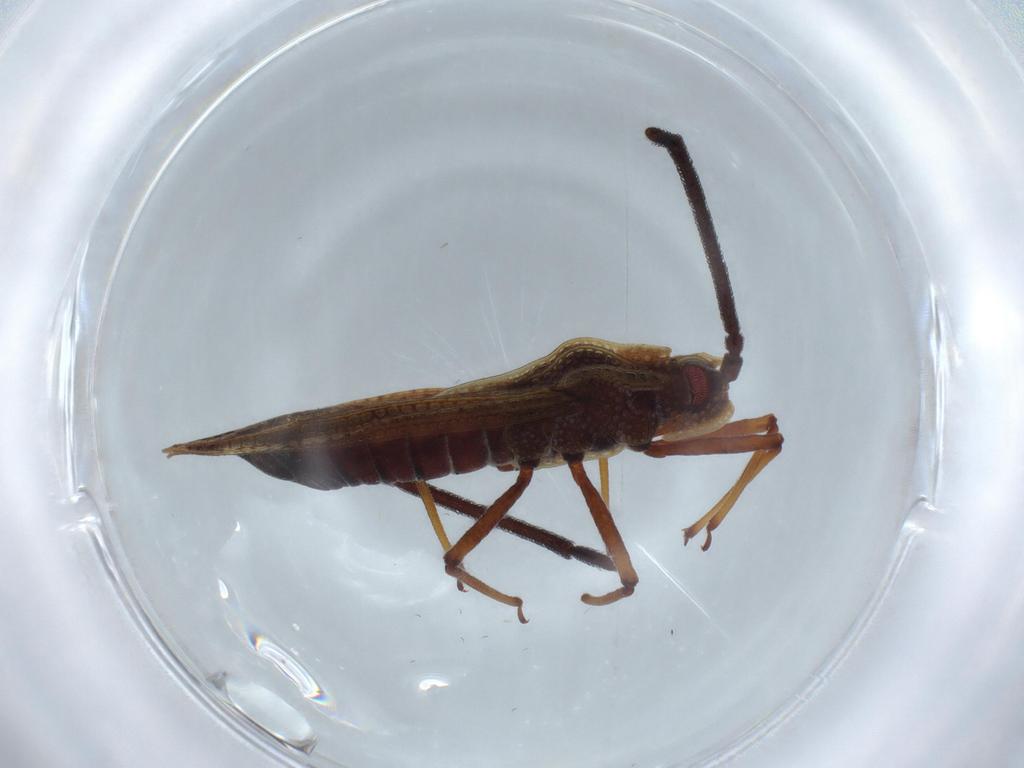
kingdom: Animalia
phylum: Arthropoda
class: Insecta
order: Hemiptera
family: Tingidae
